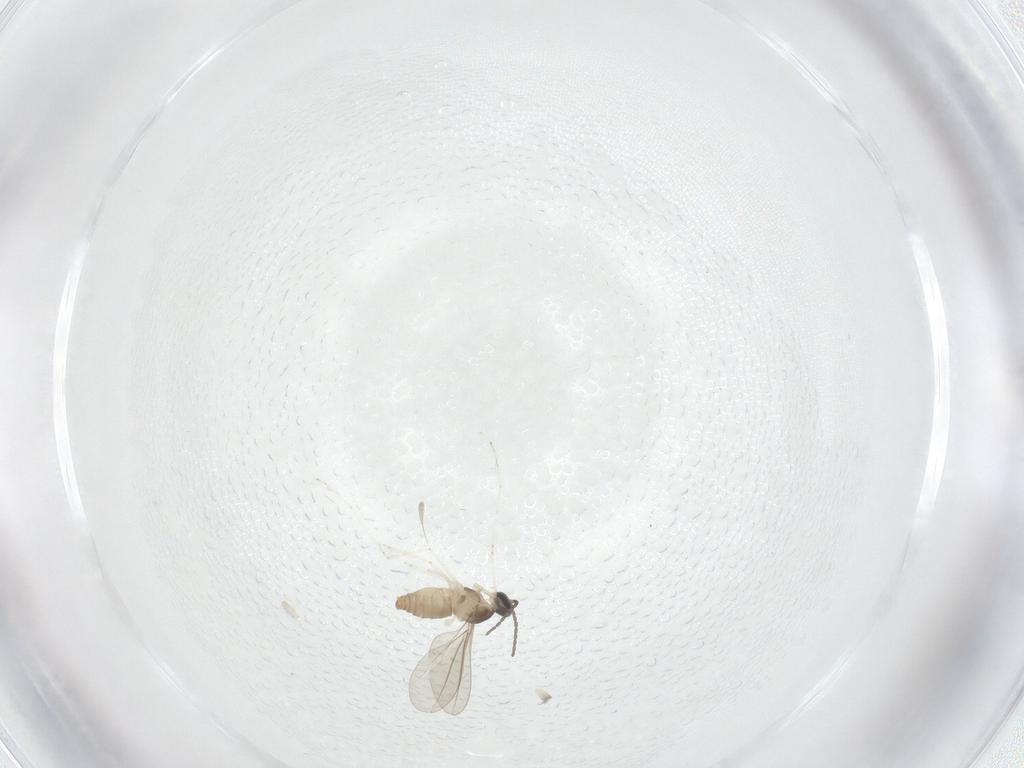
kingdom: Animalia
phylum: Arthropoda
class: Insecta
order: Diptera
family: Cecidomyiidae
